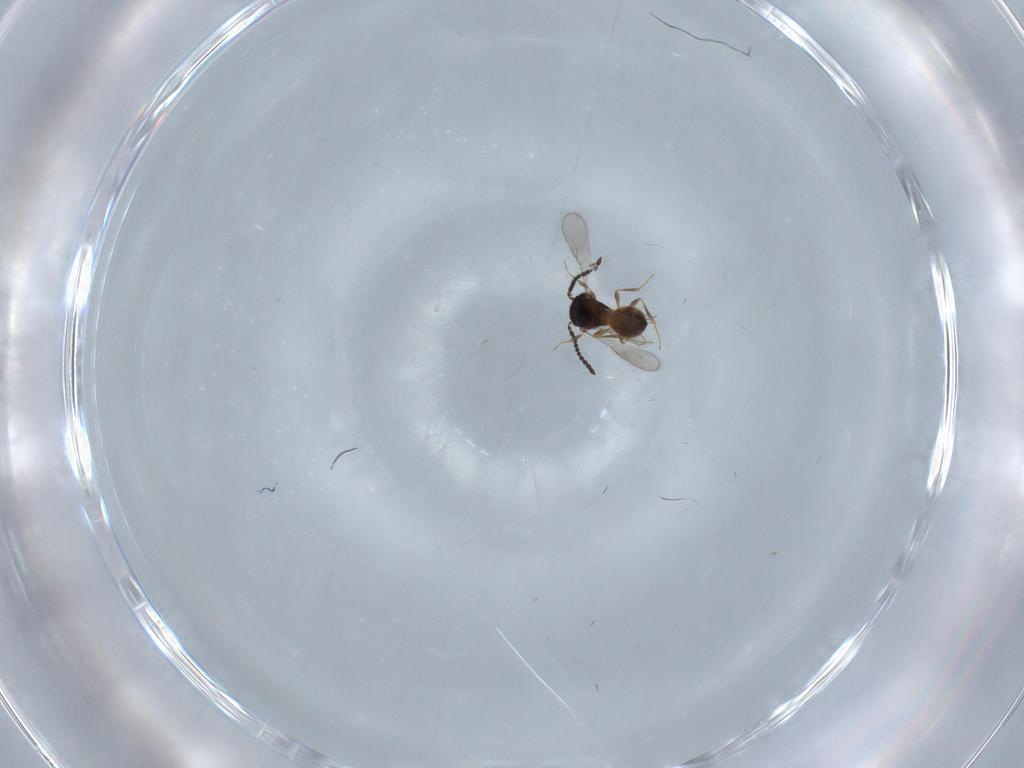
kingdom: Animalia
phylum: Arthropoda
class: Insecta
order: Hymenoptera
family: Scelionidae
